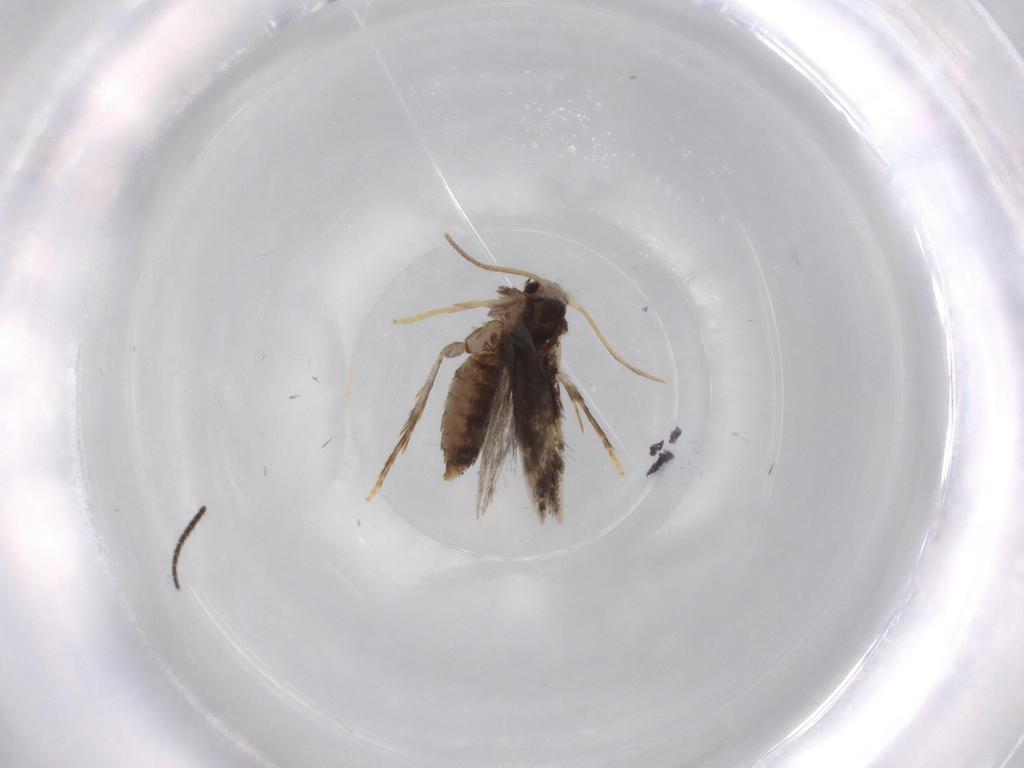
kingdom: Animalia
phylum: Arthropoda
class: Insecta
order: Lepidoptera
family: Nepticulidae
